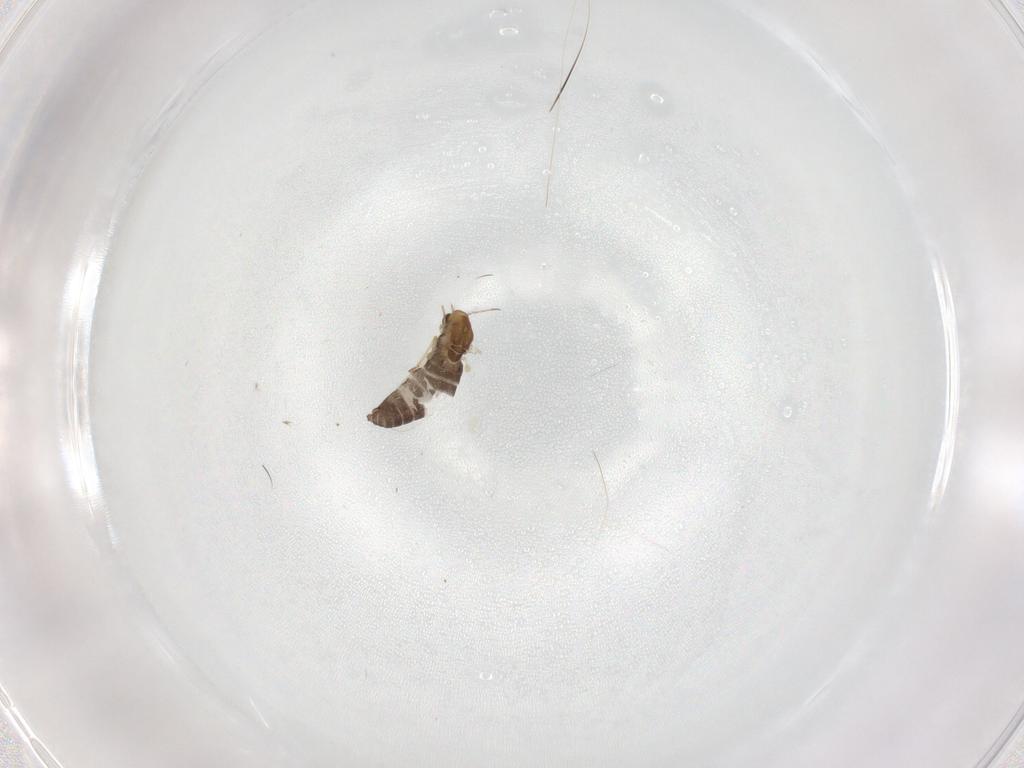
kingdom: Animalia
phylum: Arthropoda
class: Insecta
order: Diptera
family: Chironomidae
